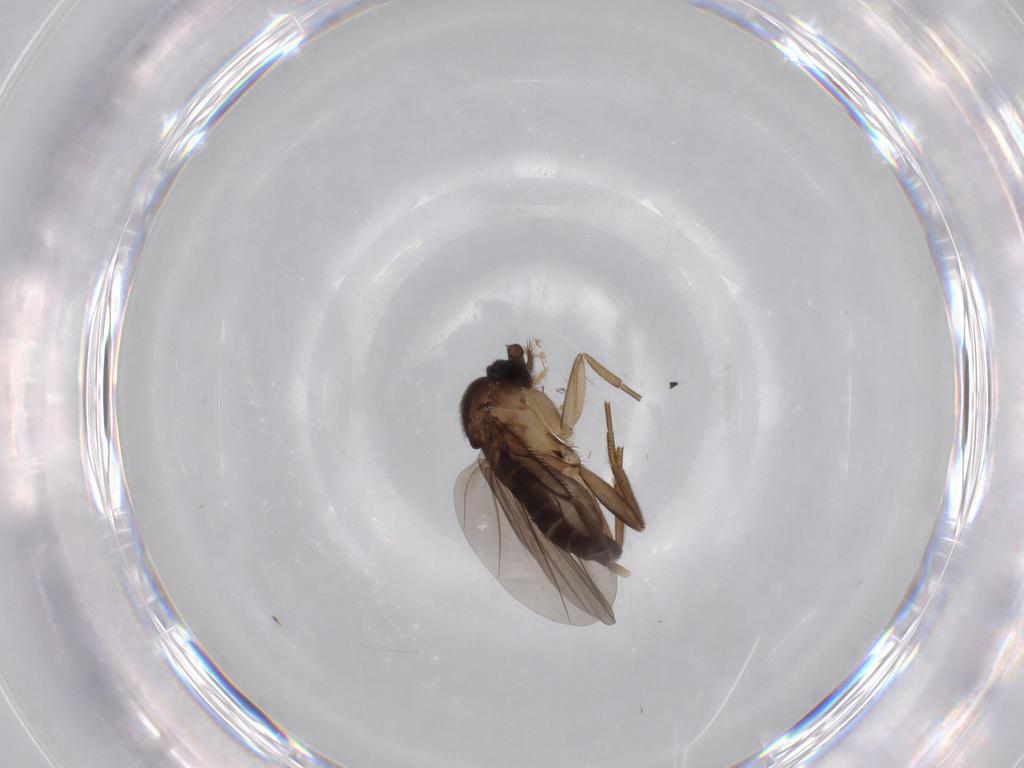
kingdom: Animalia
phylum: Arthropoda
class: Insecta
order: Diptera
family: Cecidomyiidae
